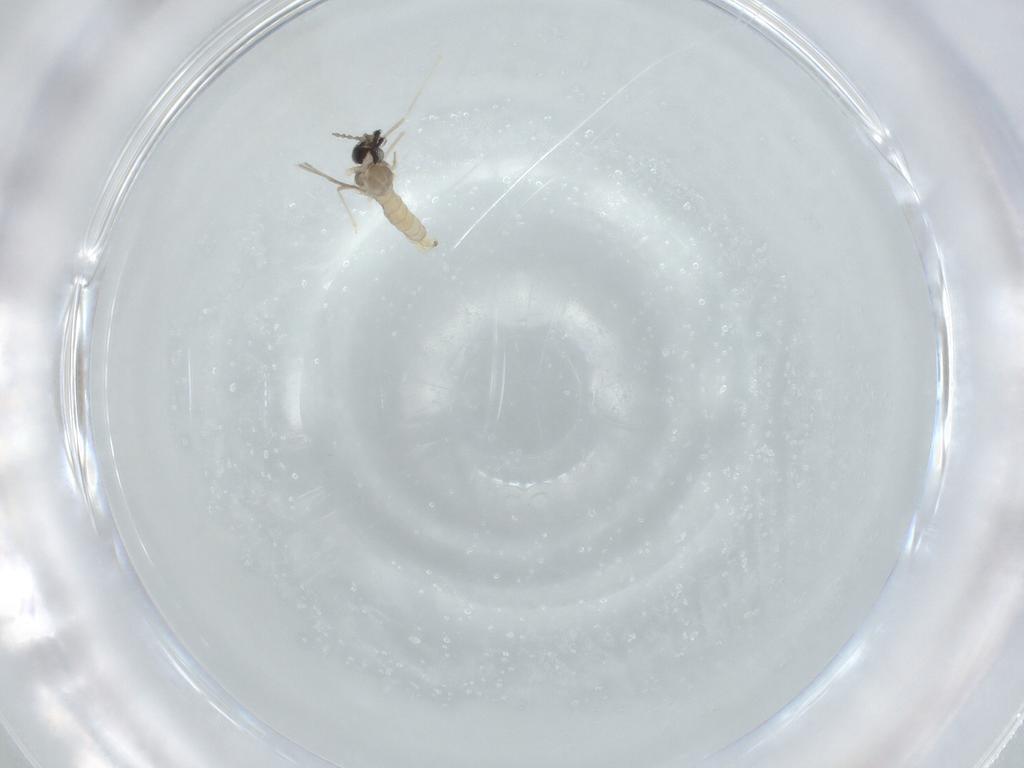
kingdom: Animalia
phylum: Arthropoda
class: Insecta
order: Diptera
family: Cecidomyiidae
